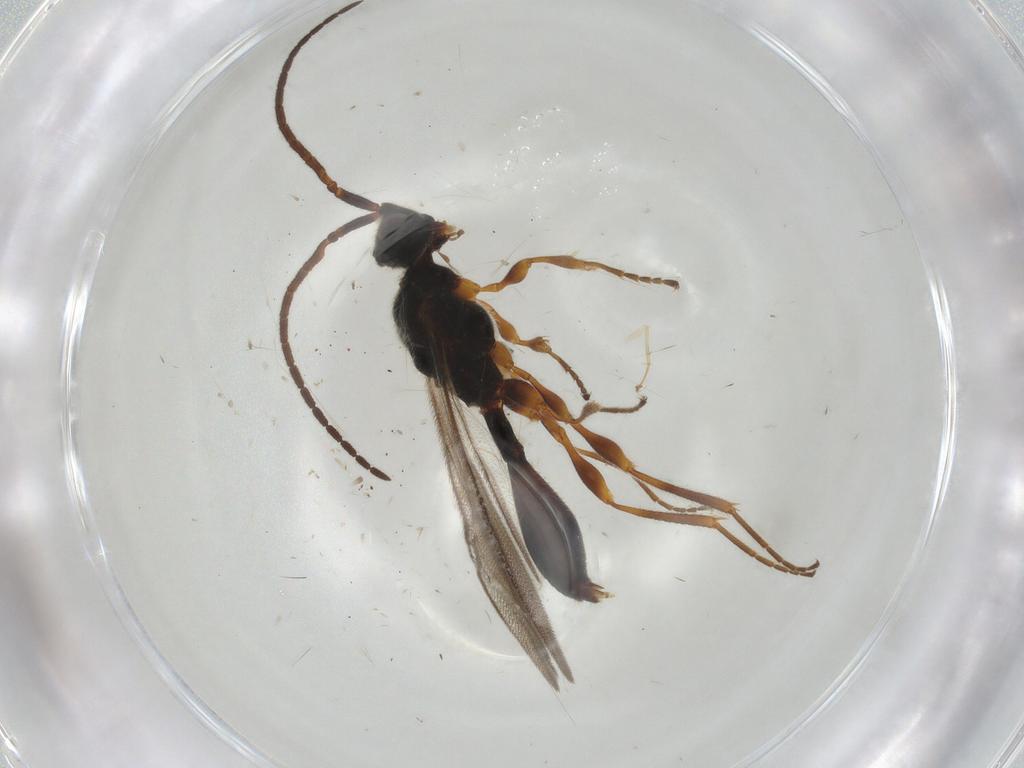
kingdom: Animalia
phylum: Arthropoda
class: Insecta
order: Hymenoptera
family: Diapriidae
